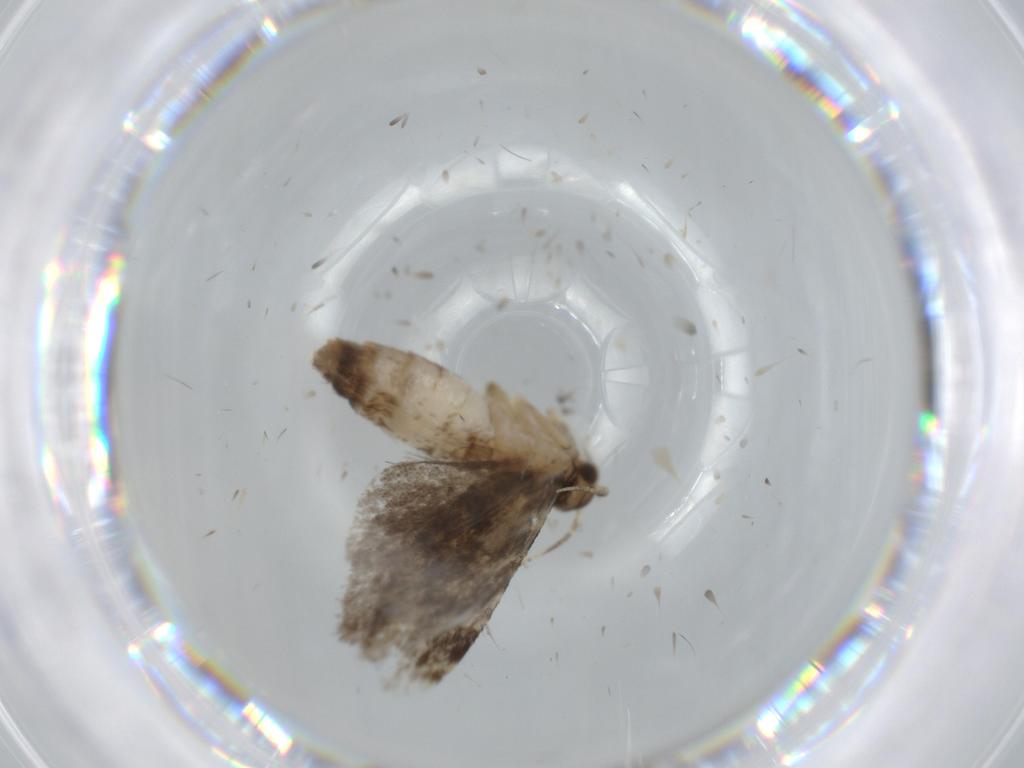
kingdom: Animalia
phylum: Arthropoda
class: Insecta
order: Lepidoptera
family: Tineidae
